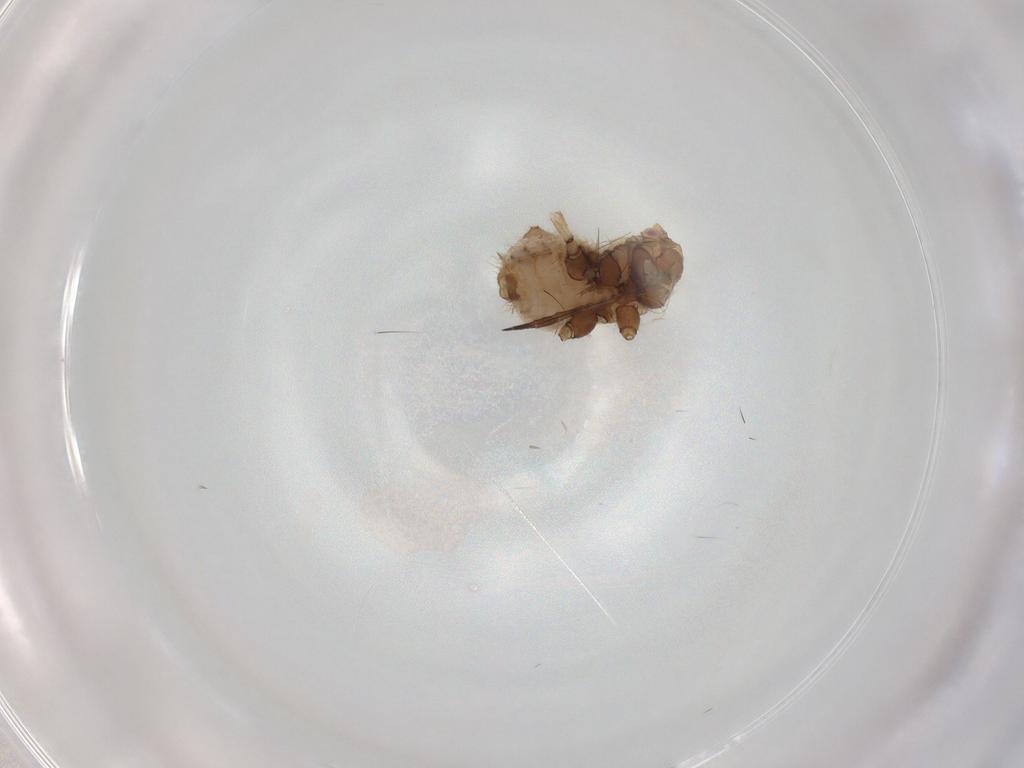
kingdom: Animalia
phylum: Arthropoda
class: Insecta
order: Hemiptera
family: Aphididae
